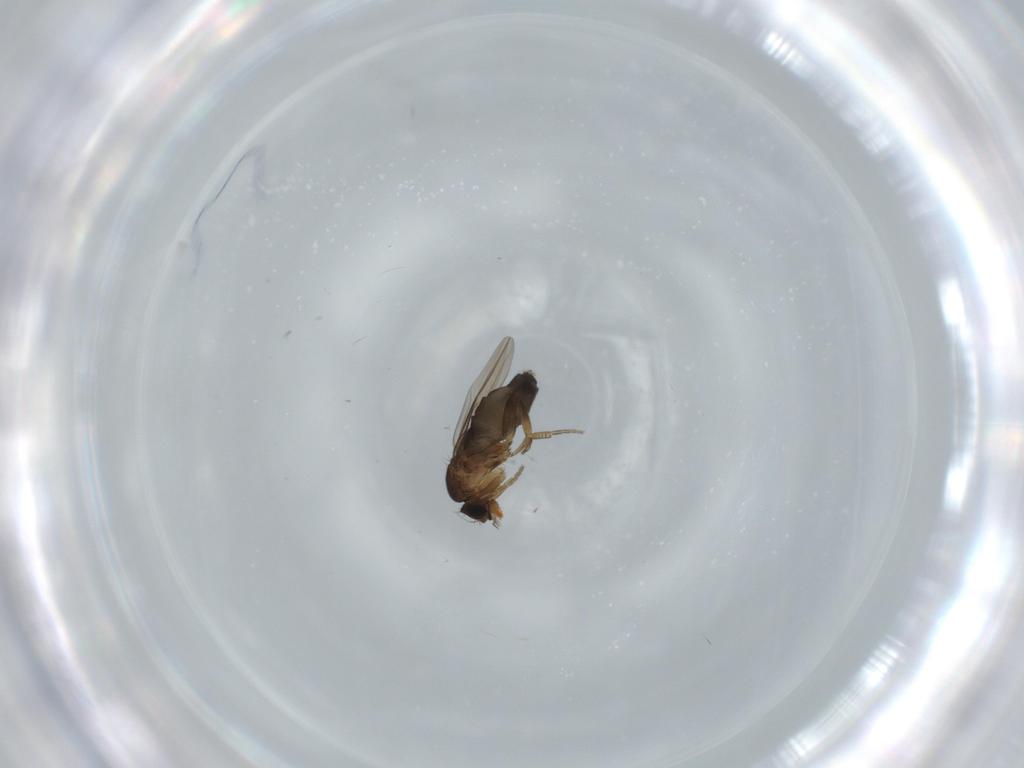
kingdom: Animalia
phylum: Arthropoda
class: Insecta
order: Diptera
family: Phoridae
